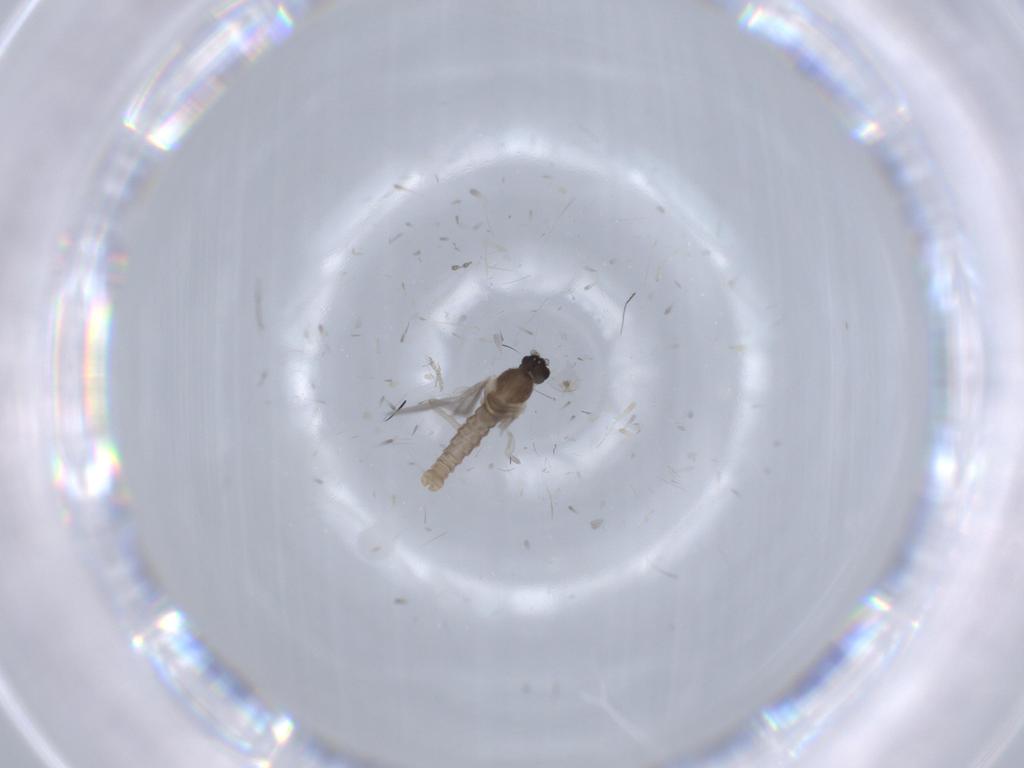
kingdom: Animalia
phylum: Arthropoda
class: Insecta
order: Diptera
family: Cecidomyiidae
